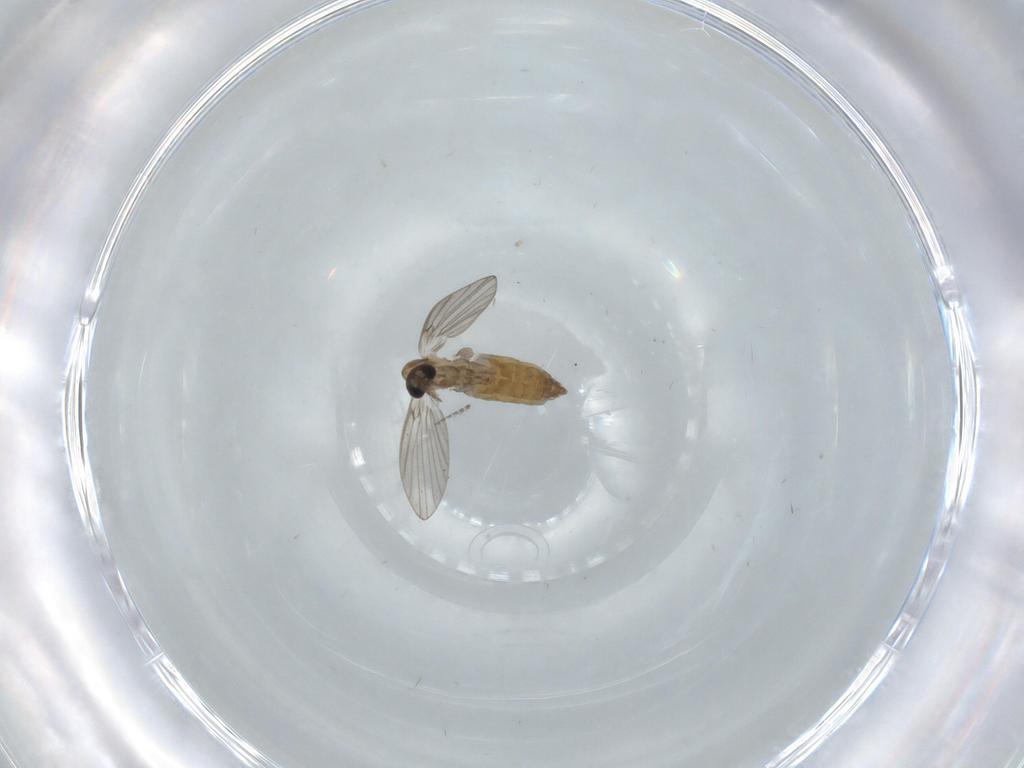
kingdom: Animalia
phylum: Arthropoda
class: Insecta
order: Diptera
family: Psychodidae
